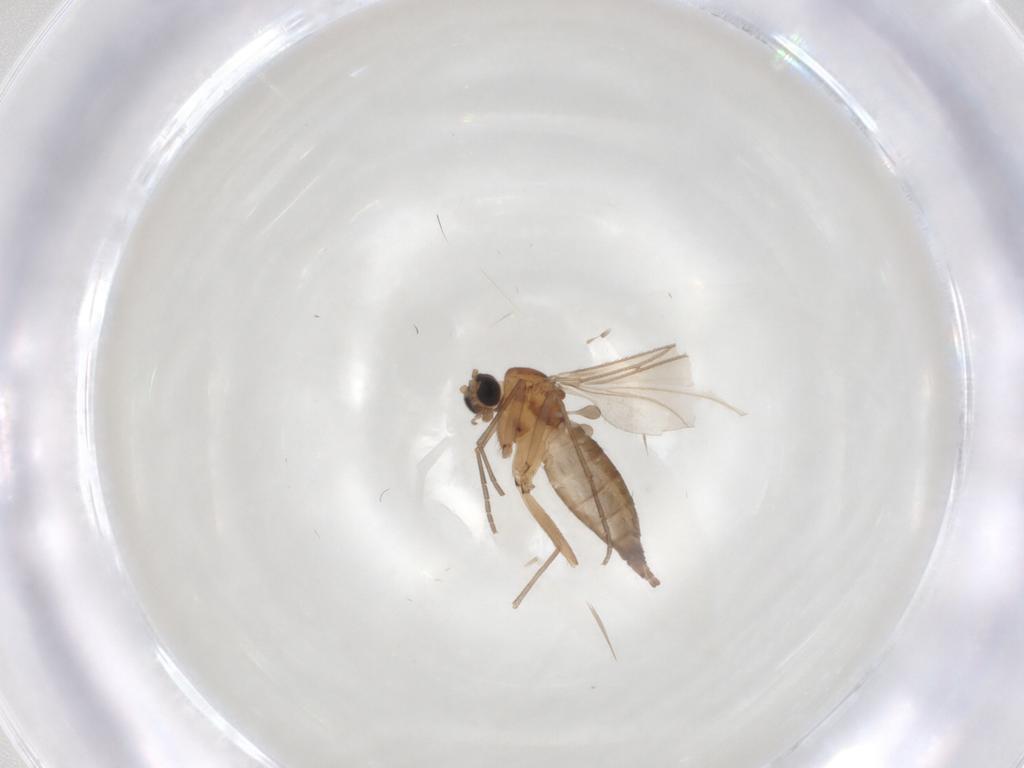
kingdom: Animalia
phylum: Arthropoda
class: Insecta
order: Diptera
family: Sciaridae
